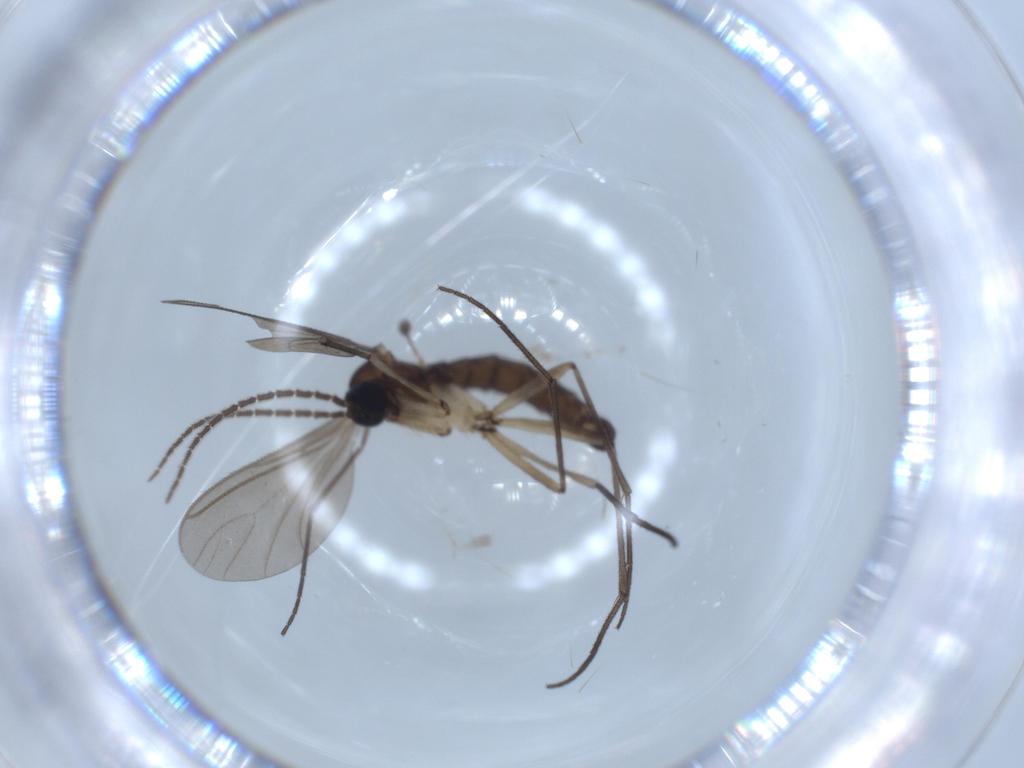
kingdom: Animalia
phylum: Arthropoda
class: Insecta
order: Diptera
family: Sciaridae
